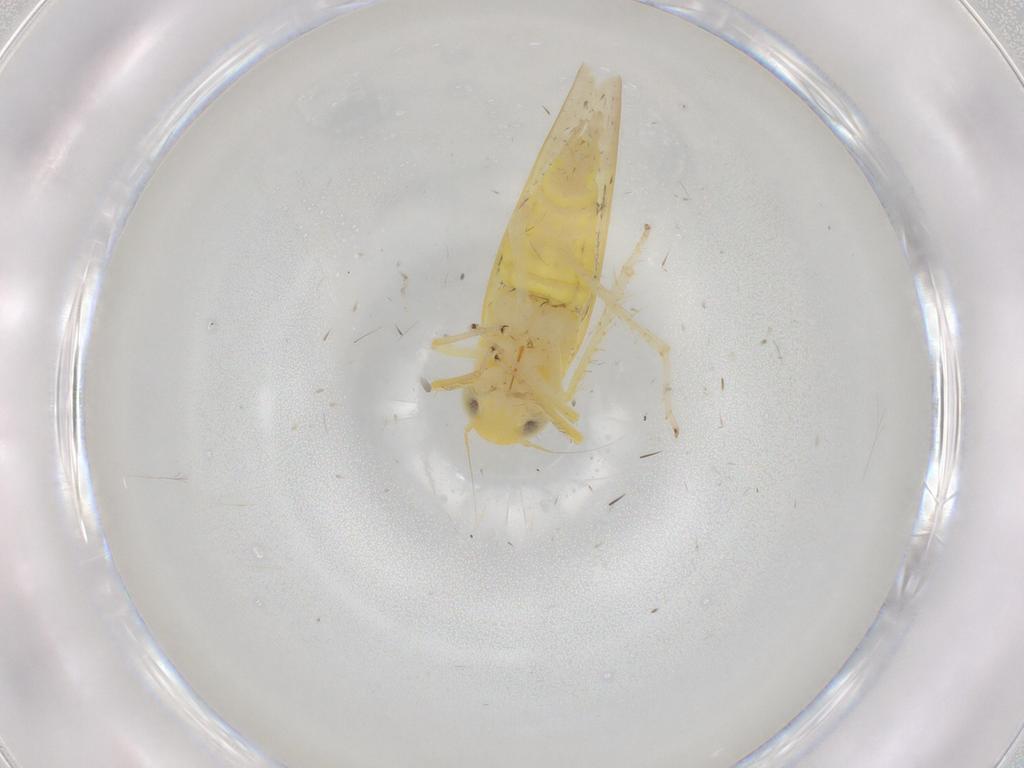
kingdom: Animalia
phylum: Arthropoda
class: Insecta
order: Hemiptera
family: Cicadellidae
